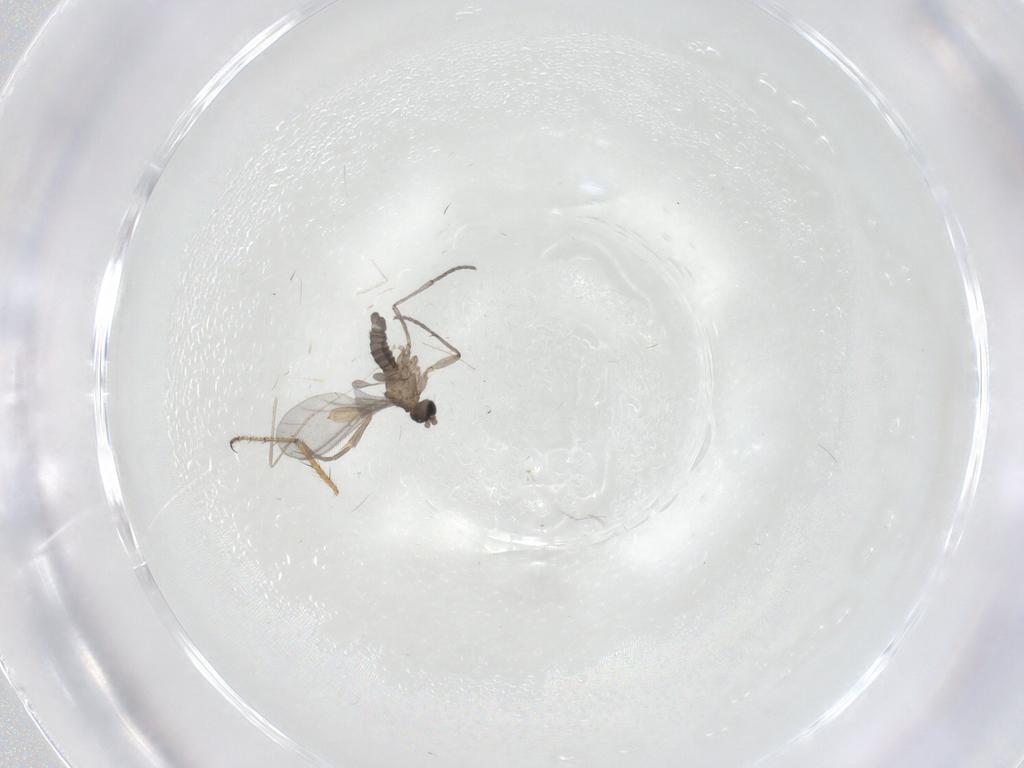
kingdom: Animalia
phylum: Arthropoda
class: Insecta
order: Diptera
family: Sciaridae
